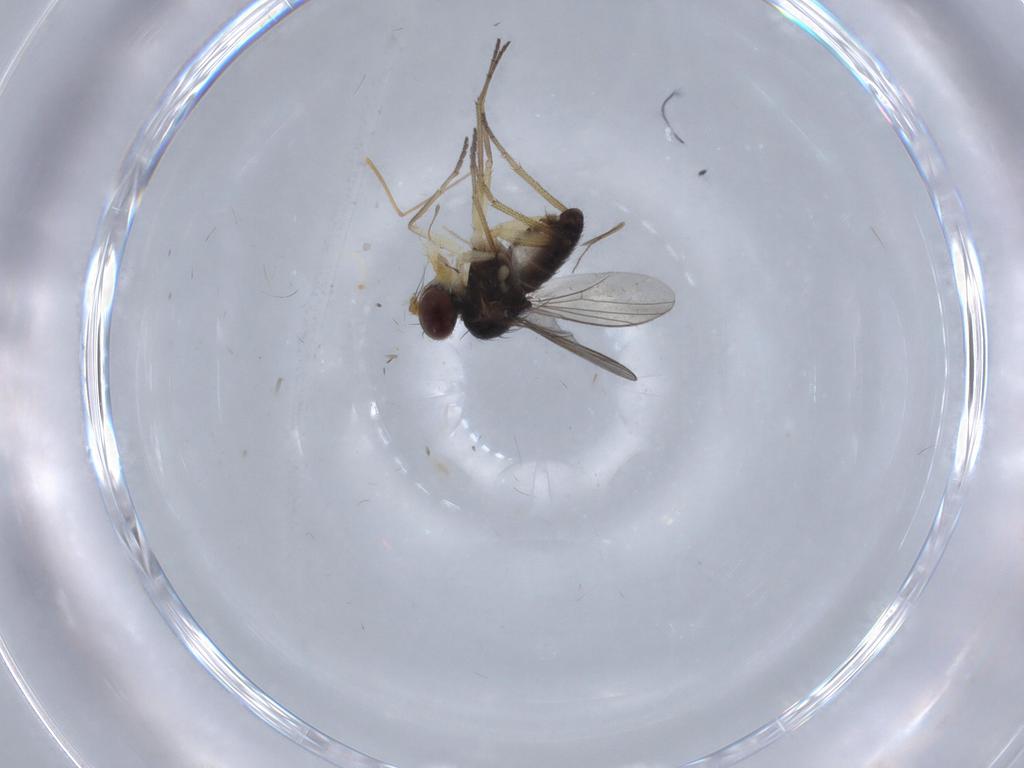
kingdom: Animalia
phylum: Arthropoda
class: Insecta
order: Diptera
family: Dolichopodidae
